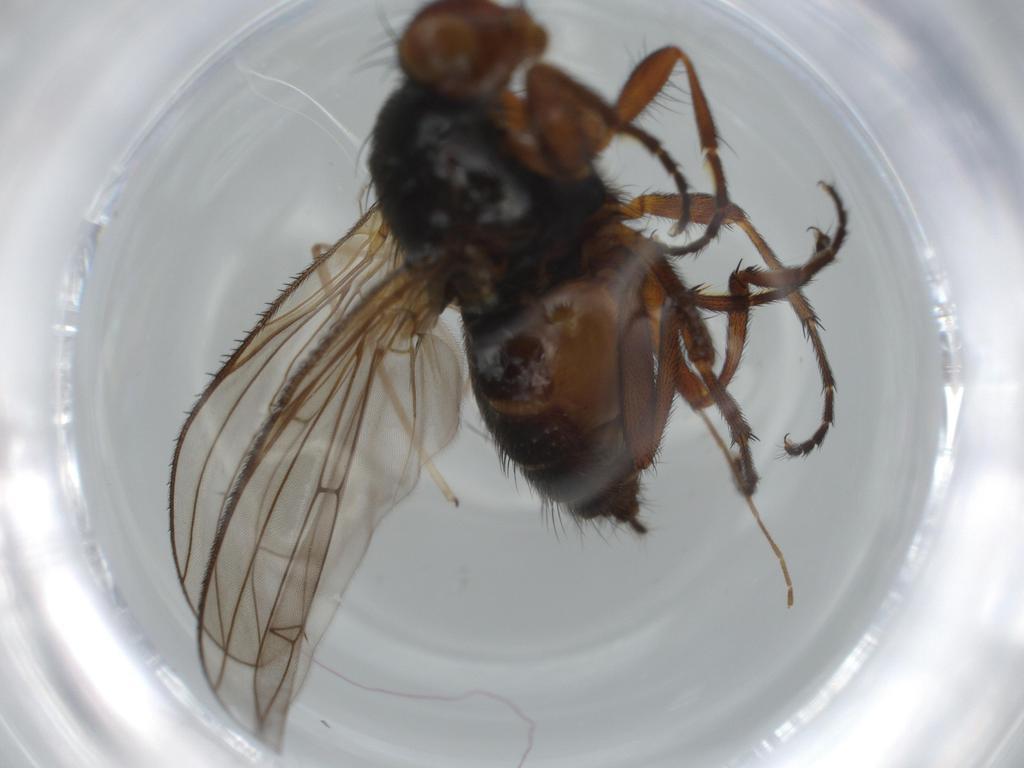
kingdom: Animalia
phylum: Arthropoda
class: Insecta
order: Diptera
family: Heleomyzidae
